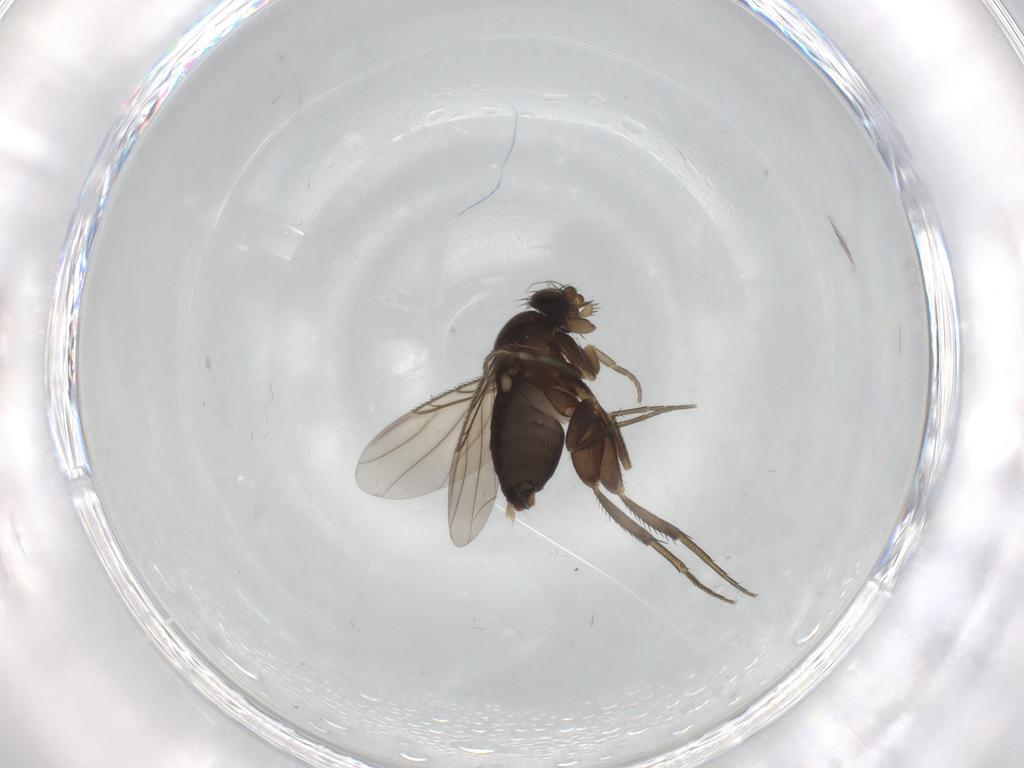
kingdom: Animalia
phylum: Arthropoda
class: Insecta
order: Diptera
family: Phoridae
